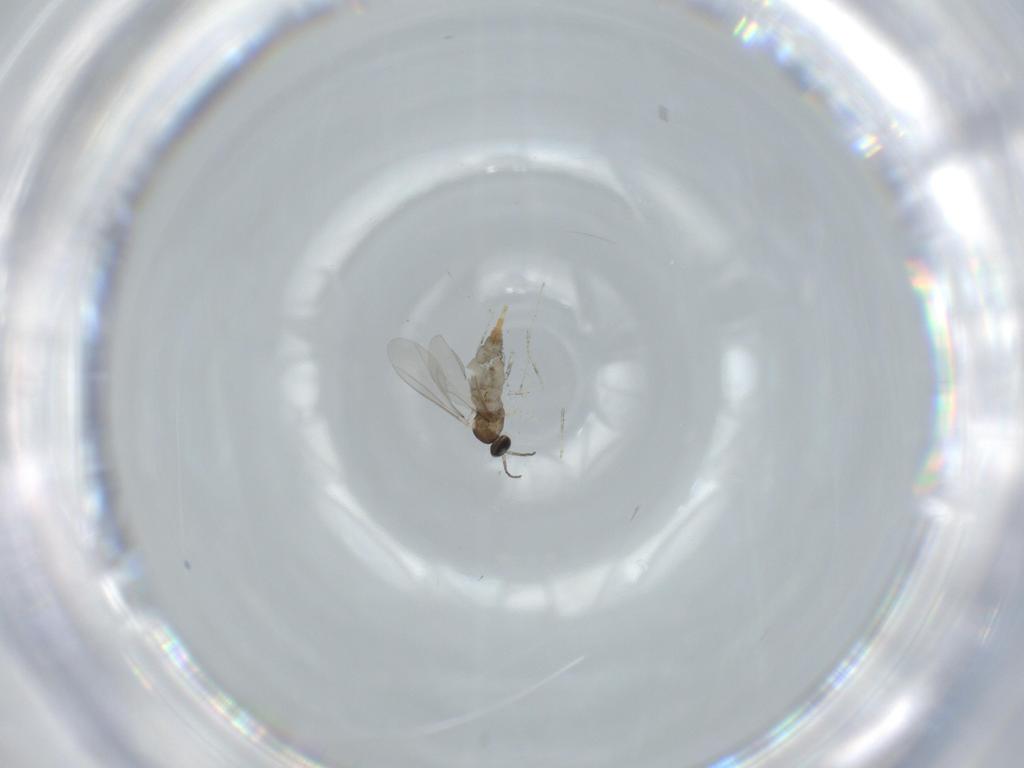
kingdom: Animalia
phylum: Arthropoda
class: Insecta
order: Diptera
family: Cecidomyiidae
